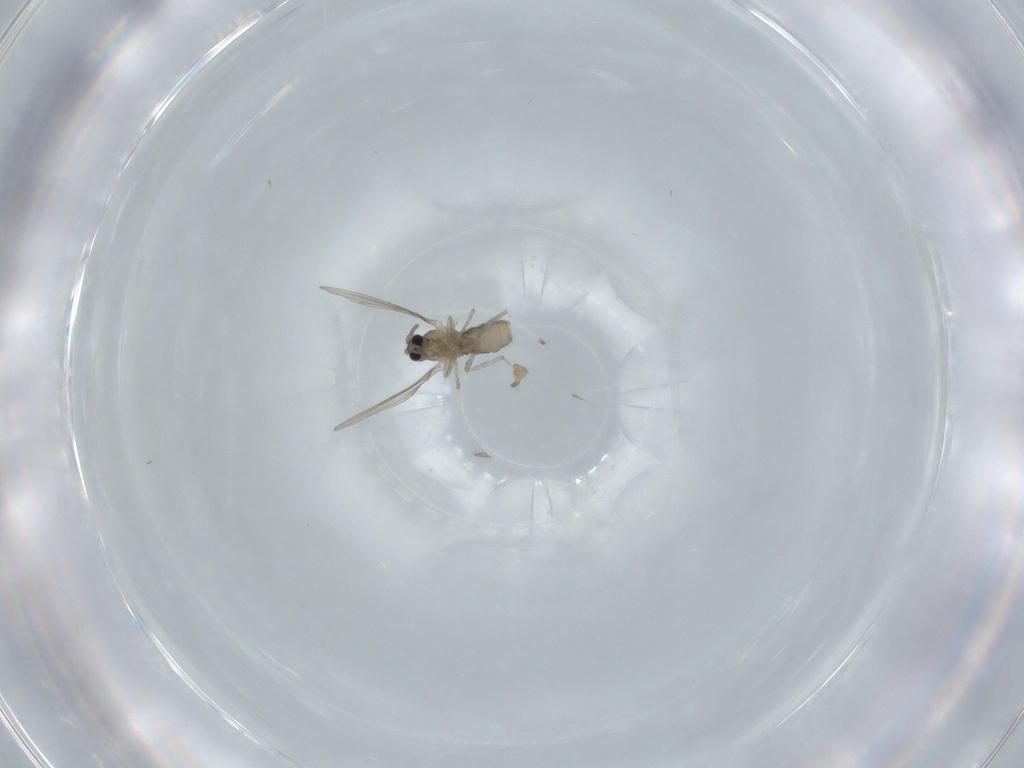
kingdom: Animalia
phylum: Arthropoda
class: Insecta
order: Diptera
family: Cecidomyiidae
